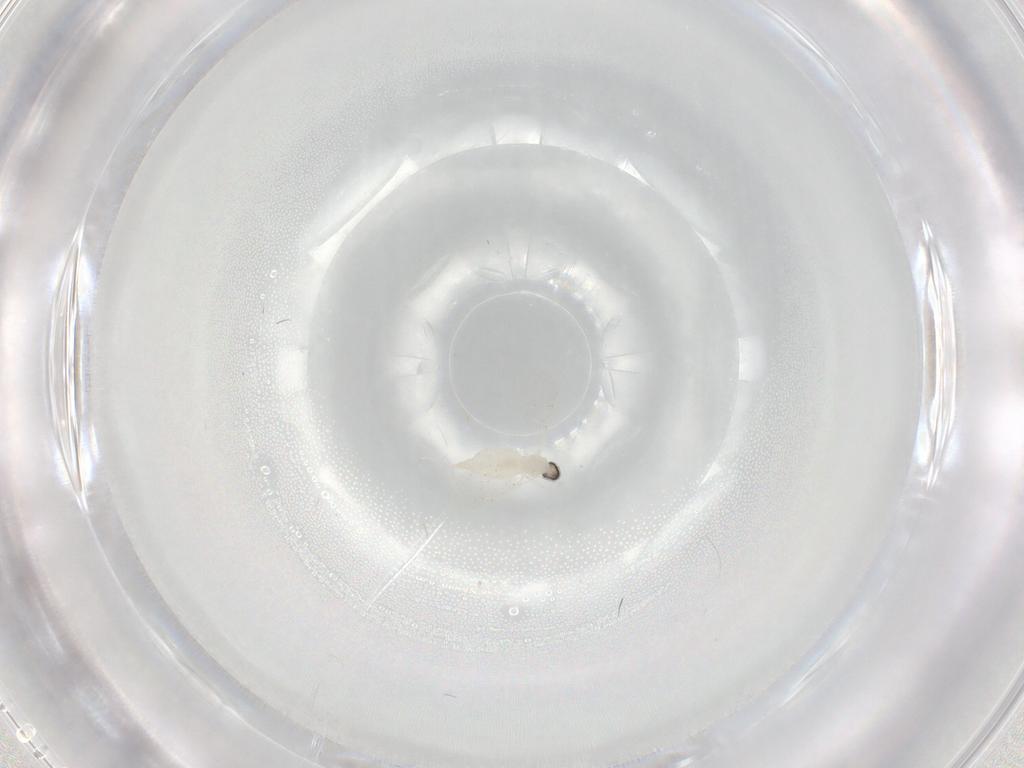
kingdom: Animalia
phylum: Arthropoda
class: Insecta
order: Diptera
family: Cecidomyiidae
